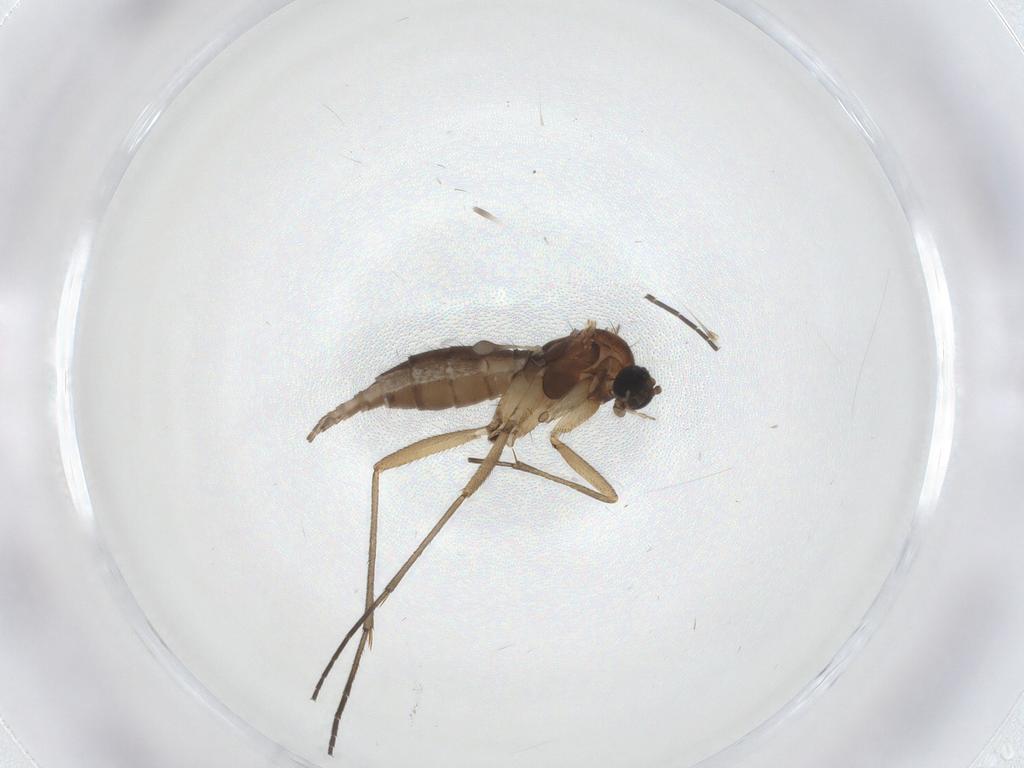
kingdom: Animalia
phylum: Arthropoda
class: Insecta
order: Diptera
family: Sciaridae
